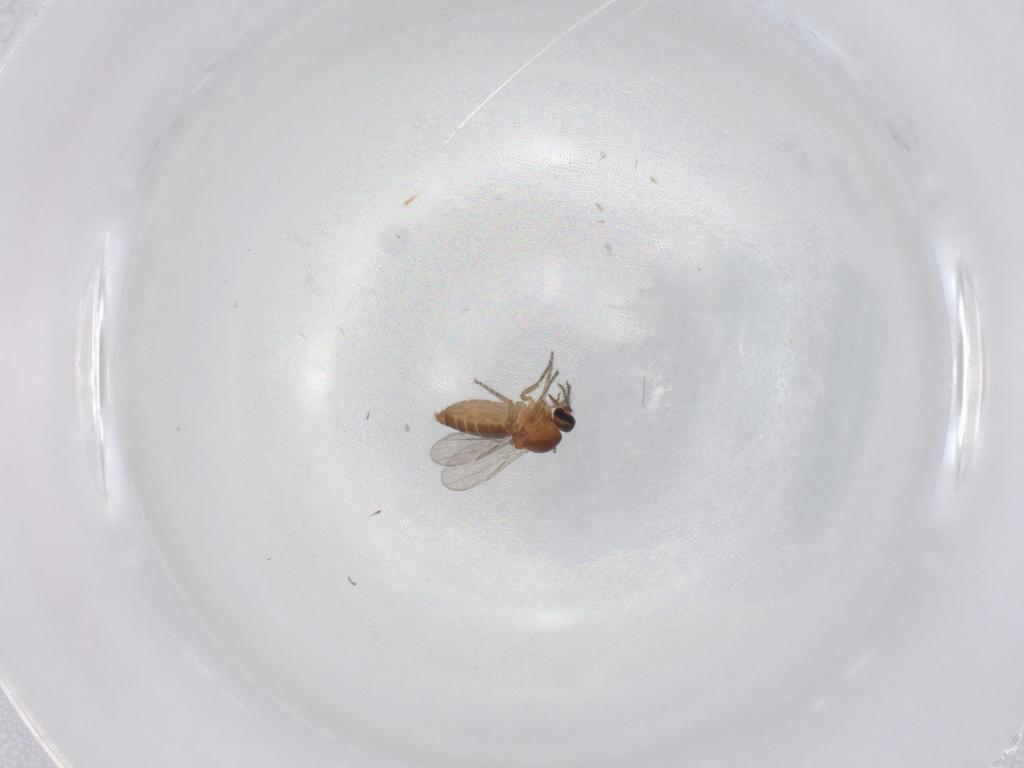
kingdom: Animalia
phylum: Arthropoda
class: Insecta
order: Diptera
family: Ceratopogonidae
